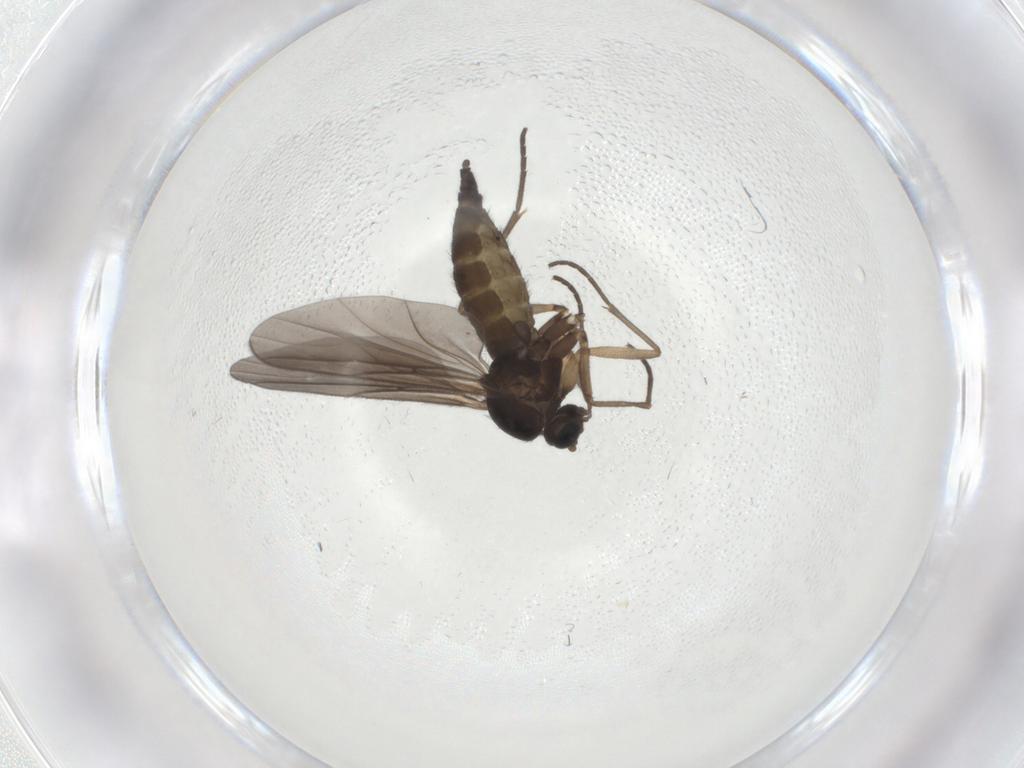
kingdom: Animalia
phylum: Arthropoda
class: Insecta
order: Diptera
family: Sciaridae
